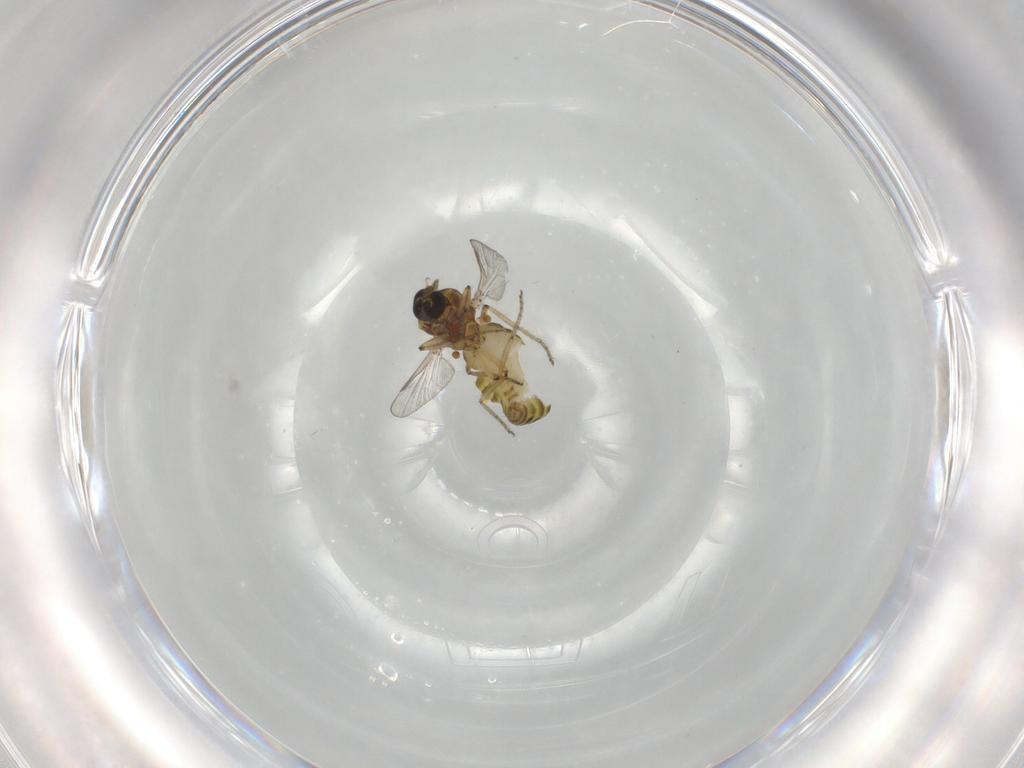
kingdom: Animalia
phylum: Arthropoda
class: Insecta
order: Diptera
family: Ceratopogonidae
